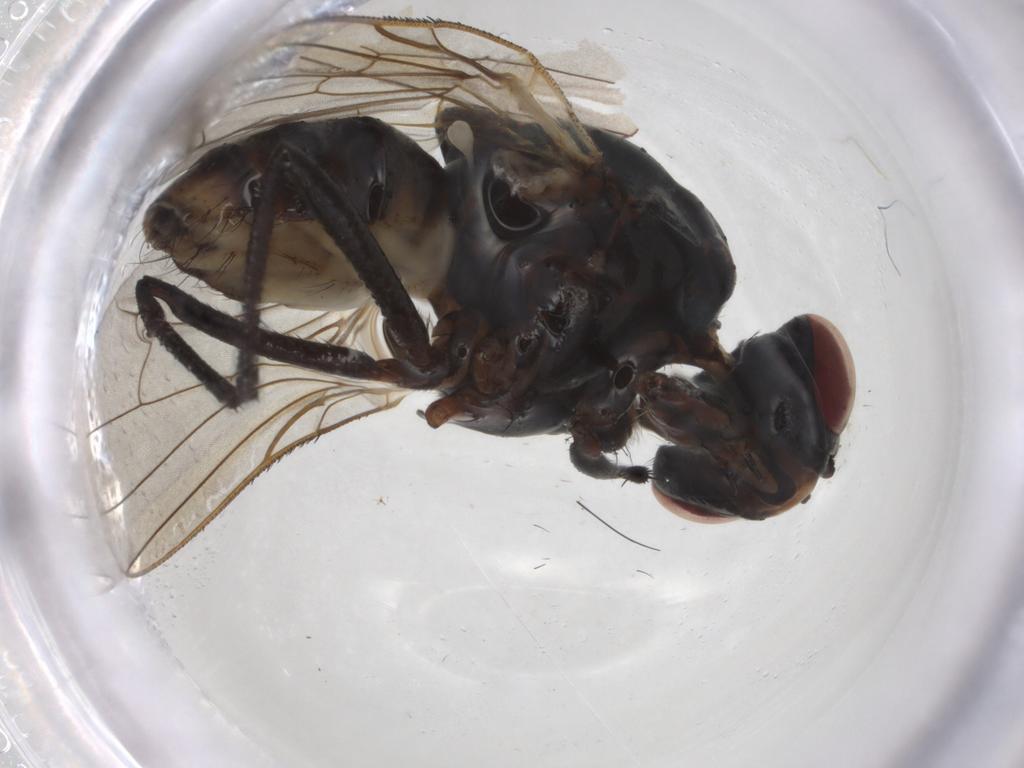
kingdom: Animalia
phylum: Arthropoda
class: Insecta
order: Diptera
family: Anthomyiidae
